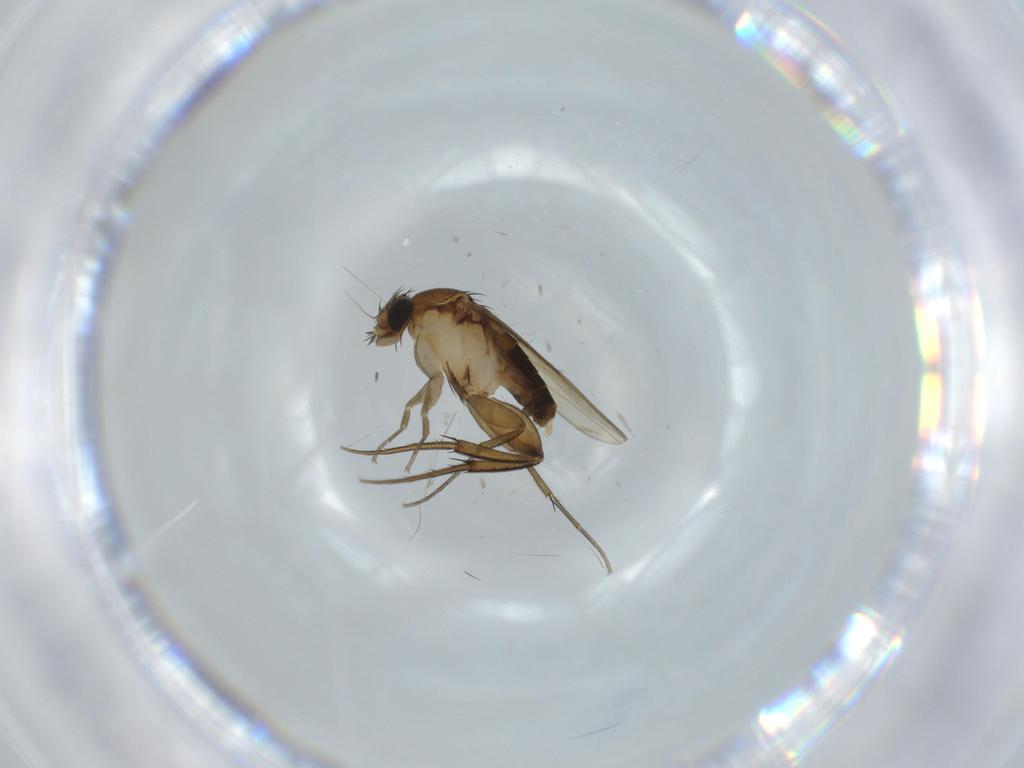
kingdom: Animalia
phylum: Arthropoda
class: Insecta
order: Diptera
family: Phoridae
